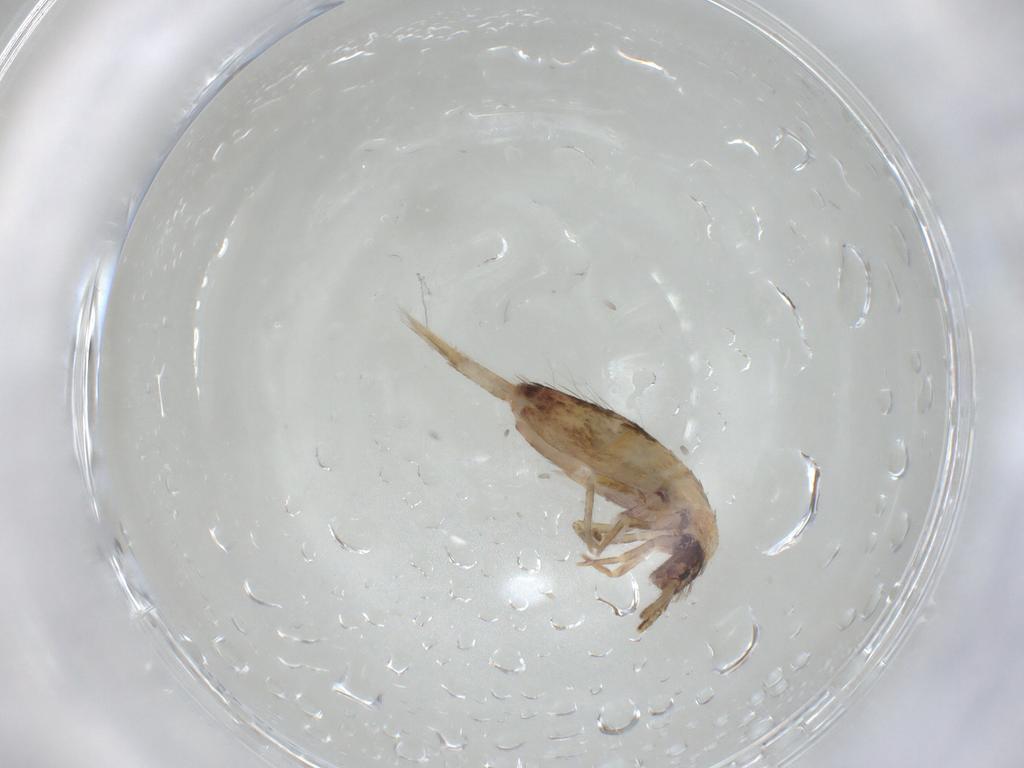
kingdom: Animalia
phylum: Arthropoda
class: Collembola
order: Entomobryomorpha
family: Entomobryidae
